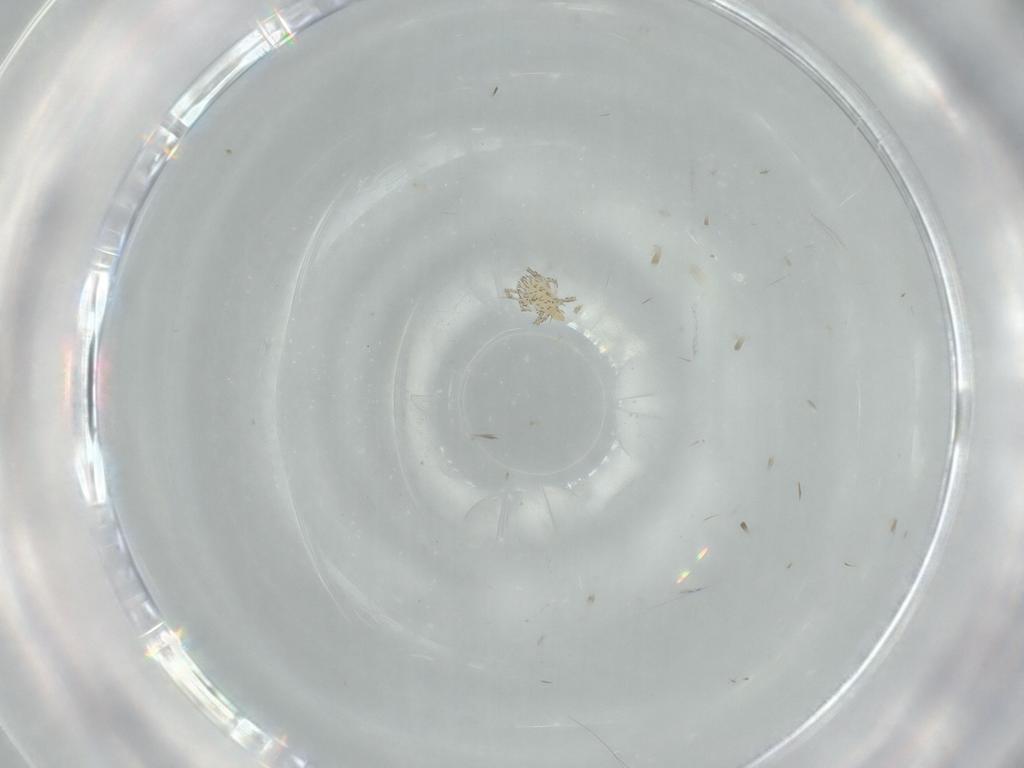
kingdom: Animalia
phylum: Arthropoda
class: Arachnida
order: Trombidiformes
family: Erythraeidae
